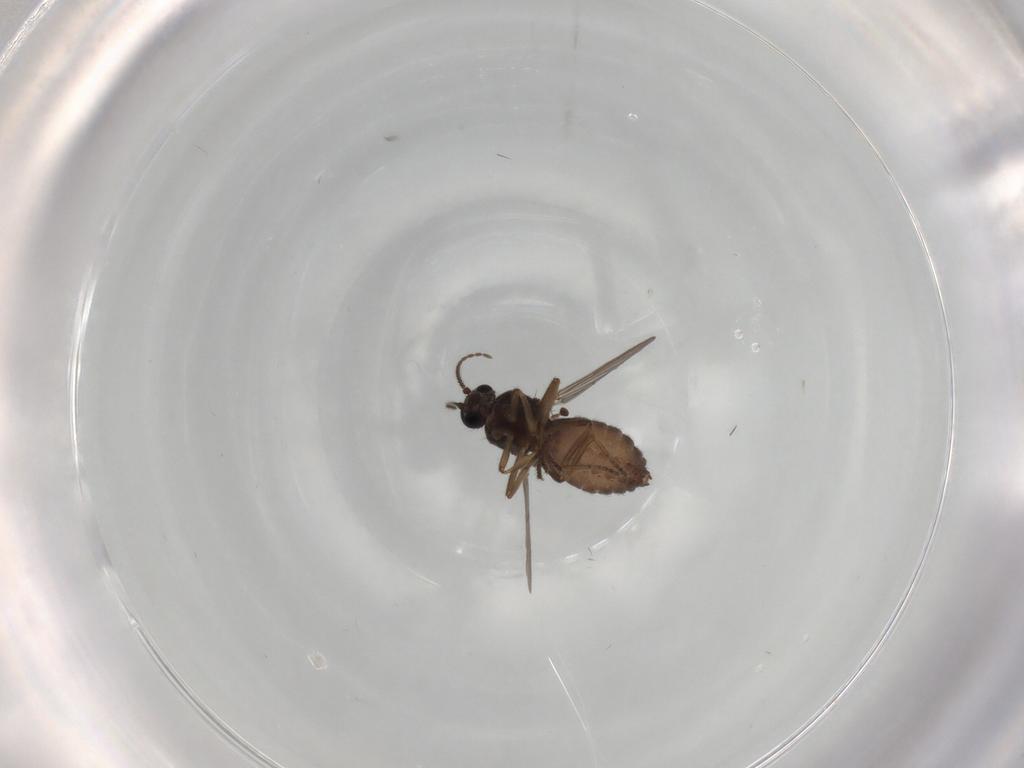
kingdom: Animalia
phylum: Arthropoda
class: Insecta
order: Diptera
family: Ceratopogonidae
